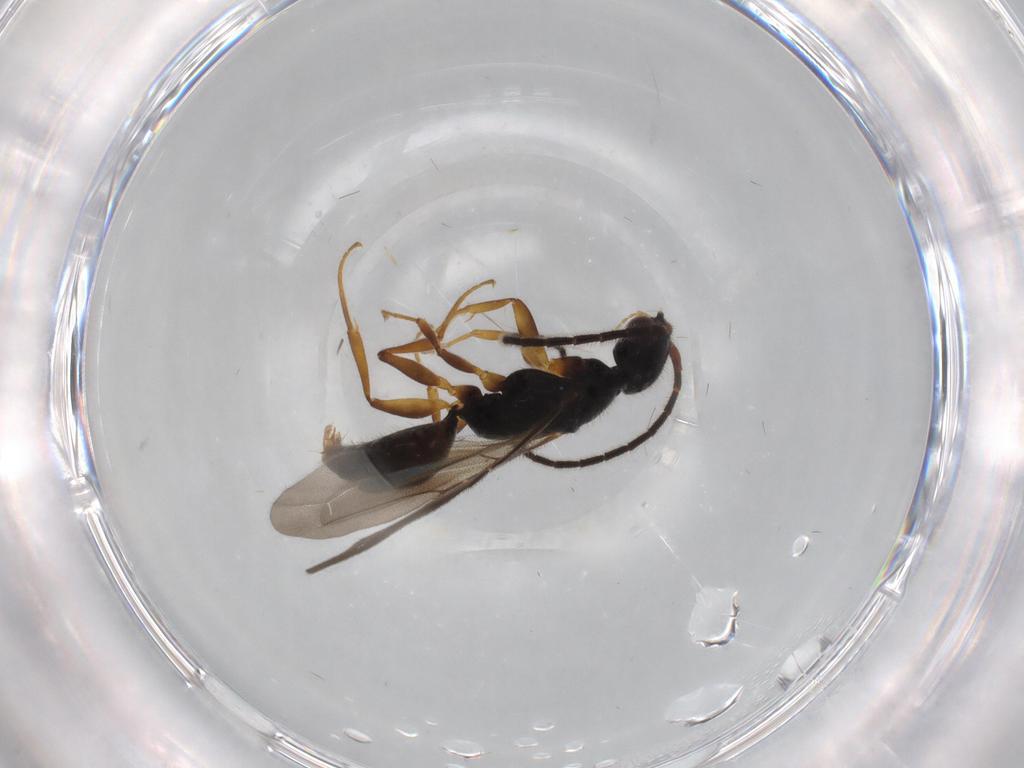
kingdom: Animalia
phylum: Arthropoda
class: Insecta
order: Hymenoptera
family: Bethylidae
